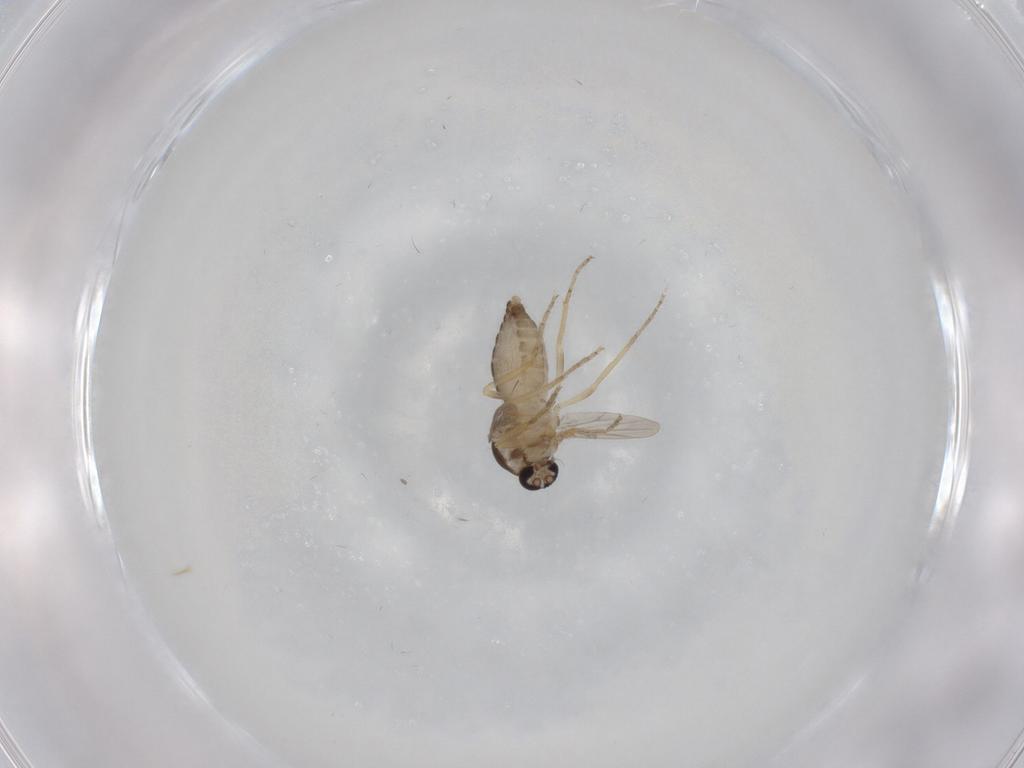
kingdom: Animalia
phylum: Arthropoda
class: Insecta
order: Diptera
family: Ceratopogonidae
